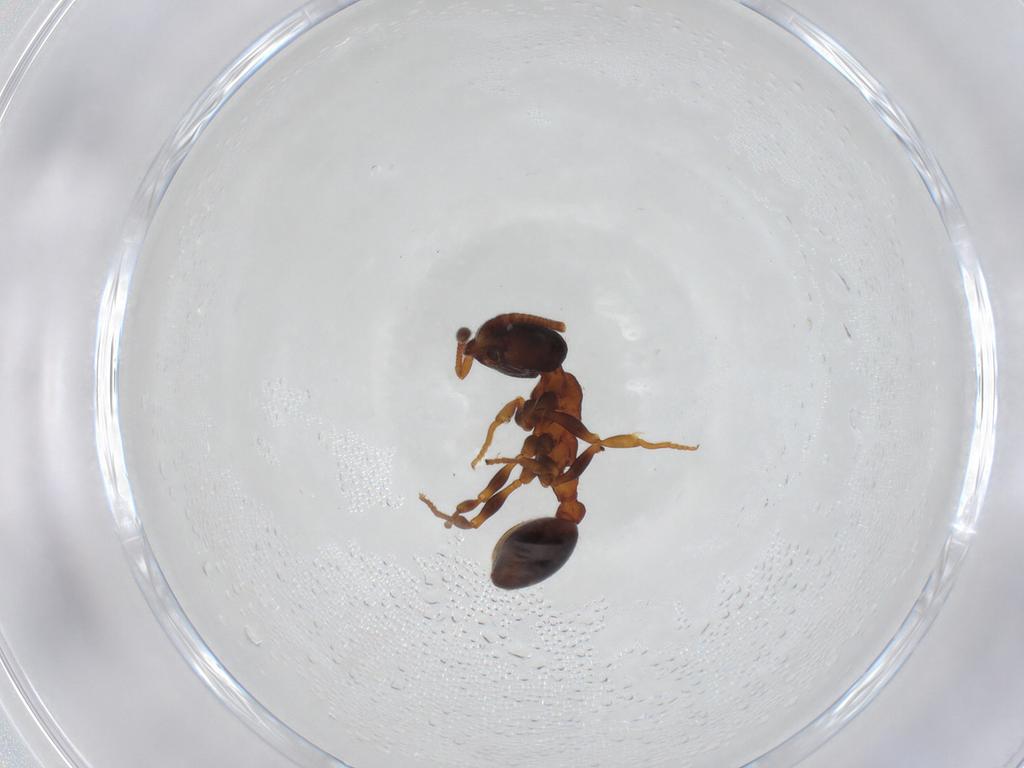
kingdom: Animalia
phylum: Arthropoda
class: Insecta
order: Hymenoptera
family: Formicidae
